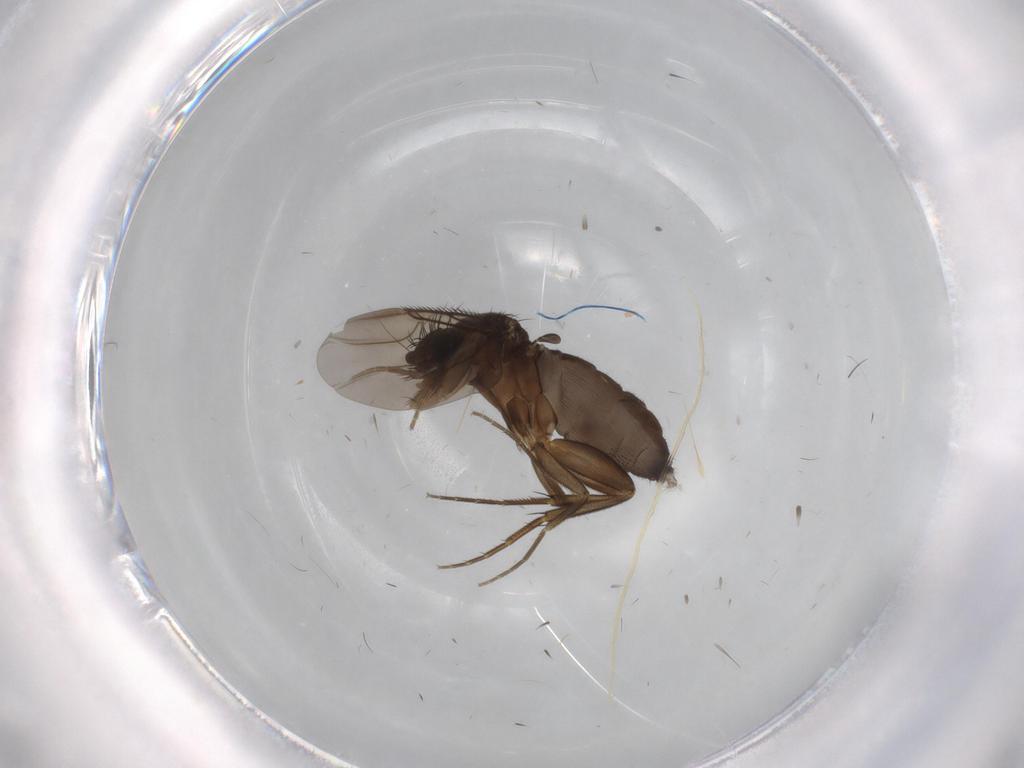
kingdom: Animalia
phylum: Arthropoda
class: Insecta
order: Diptera
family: Phoridae
